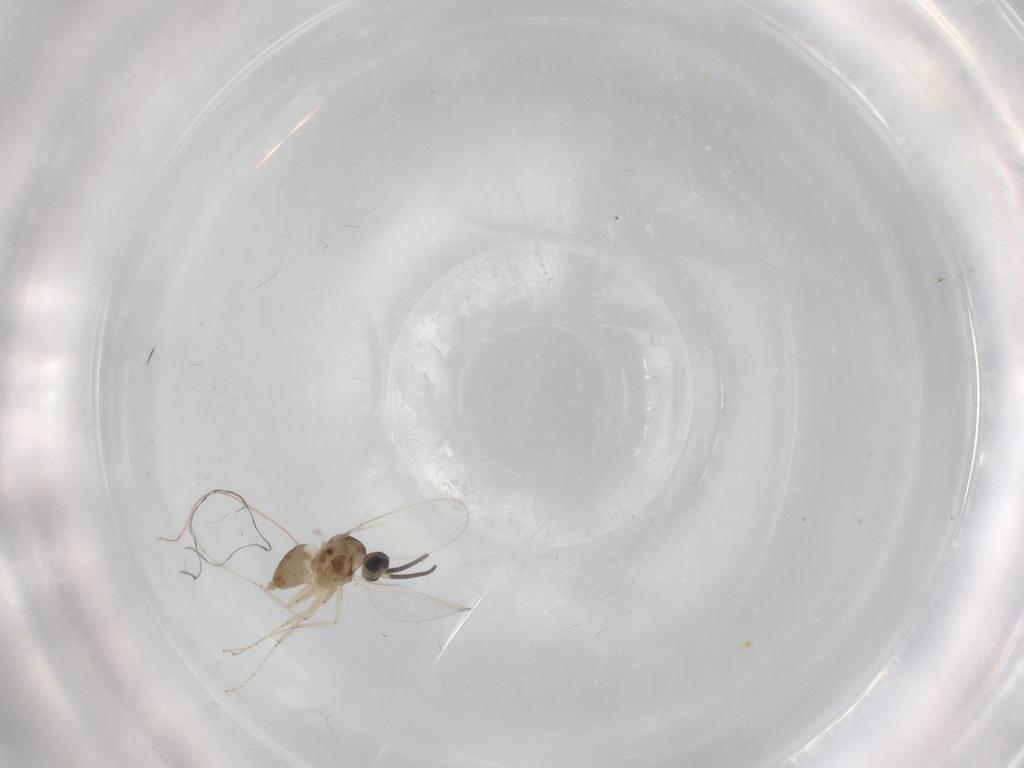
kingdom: Animalia
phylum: Arthropoda
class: Insecta
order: Diptera
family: Cecidomyiidae
